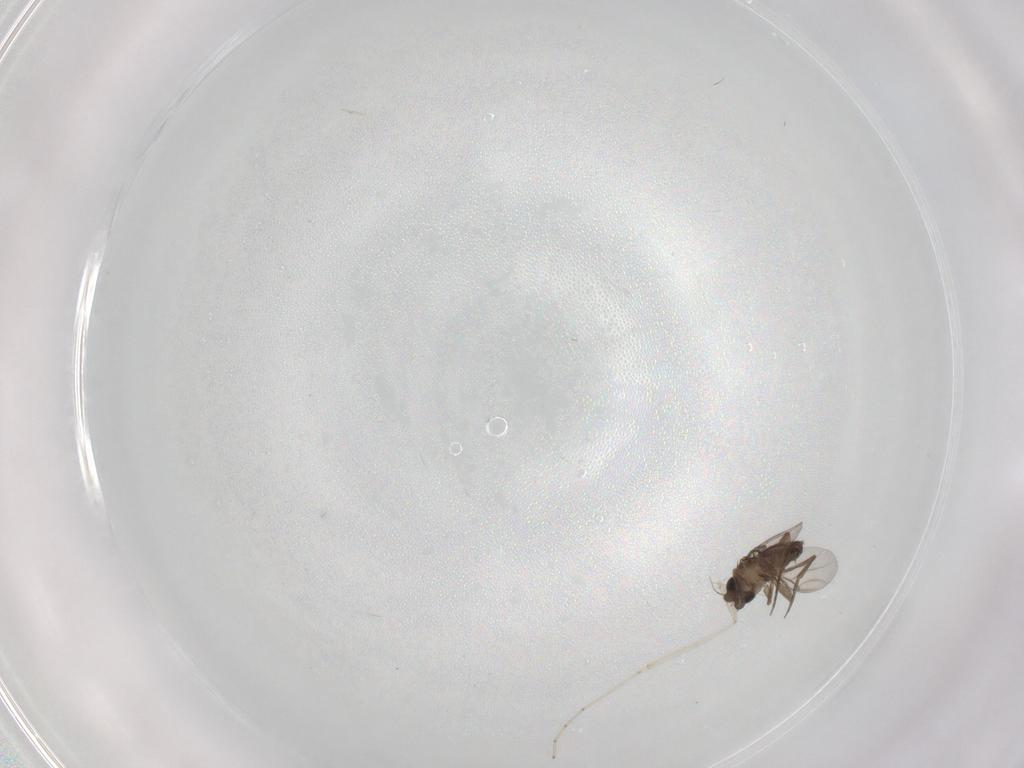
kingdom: Animalia
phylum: Arthropoda
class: Insecta
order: Diptera
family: Phoridae
